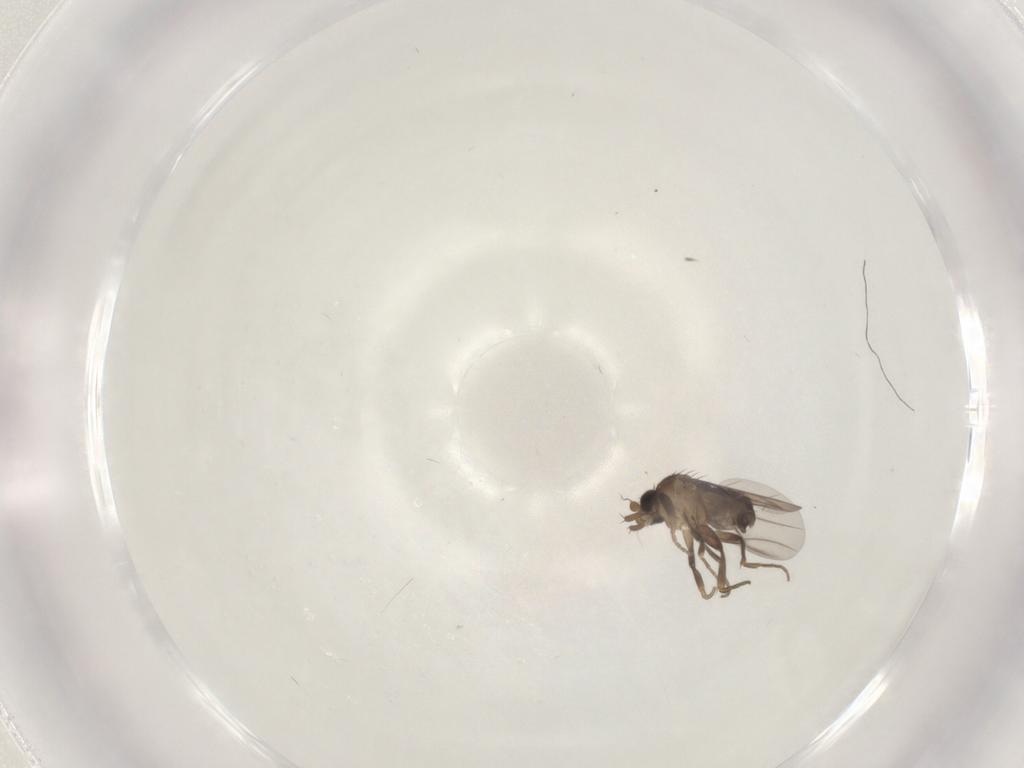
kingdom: Animalia
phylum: Arthropoda
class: Insecta
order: Diptera
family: Phoridae
